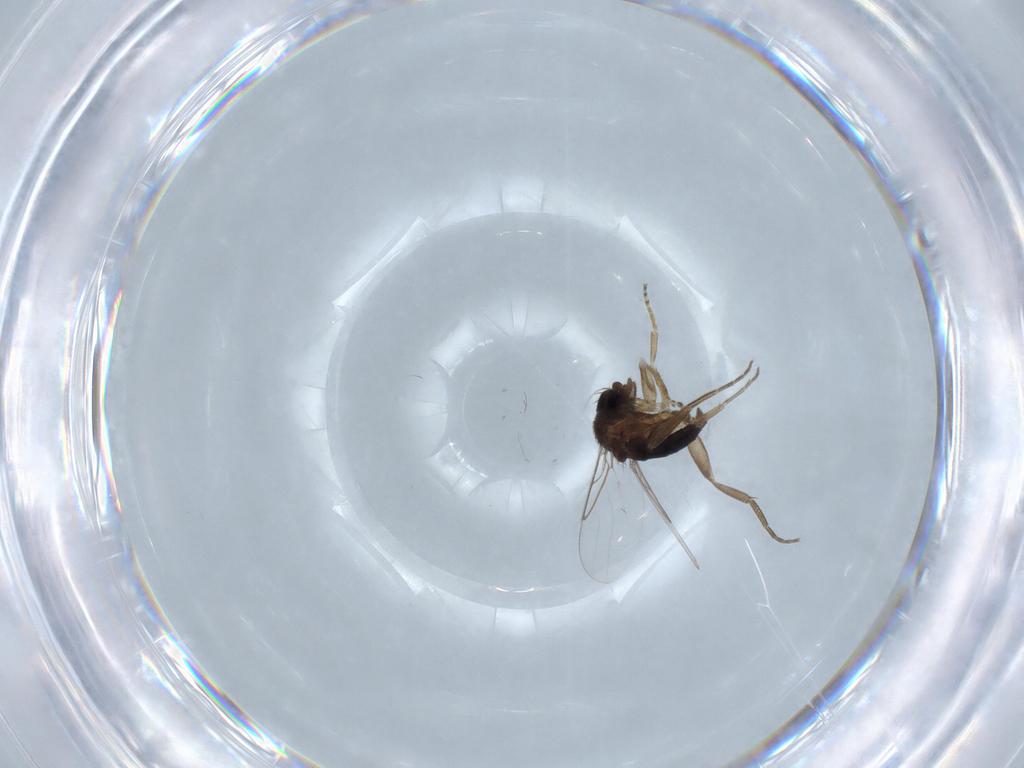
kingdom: Animalia
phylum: Arthropoda
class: Insecta
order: Diptera
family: Phoridae
